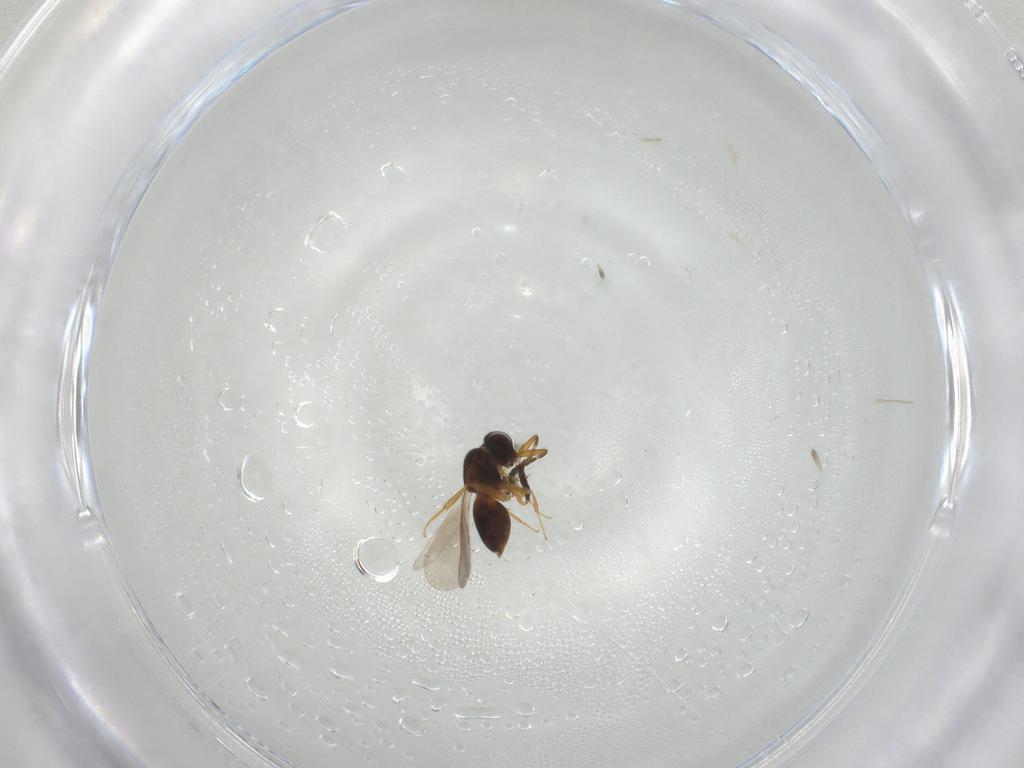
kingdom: Animalia
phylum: Arthropoda
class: Insecta
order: Hymenoptera
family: Ceraphronidae
